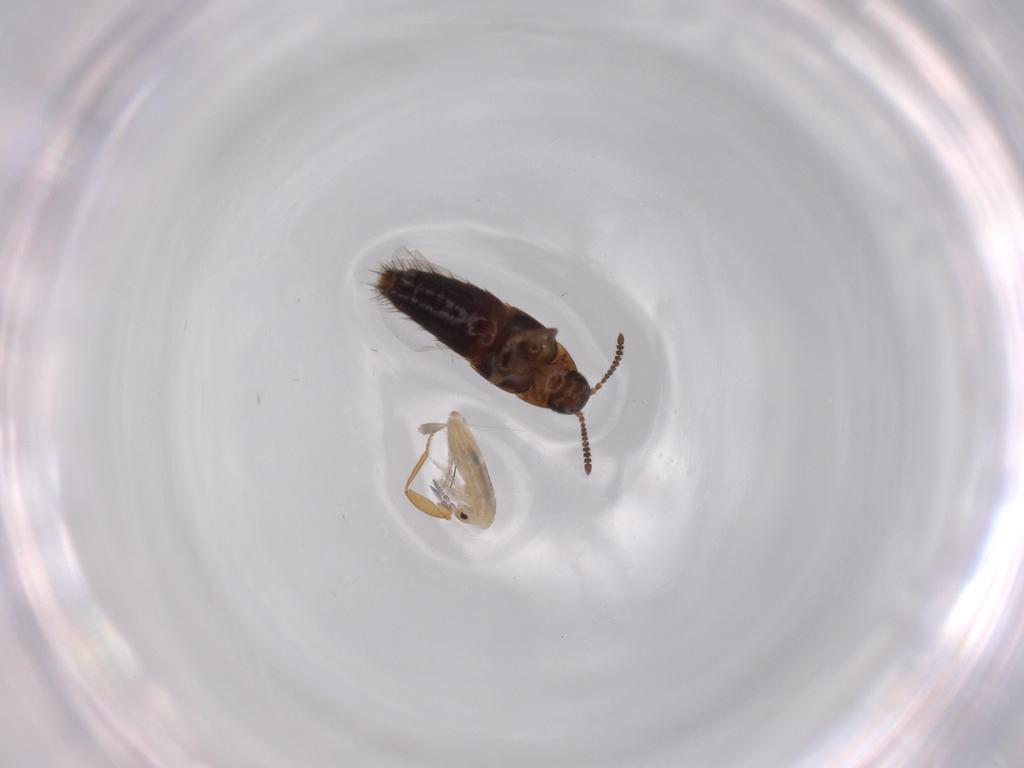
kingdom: Animalia
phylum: Arthropoda
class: Insecta
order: Coleoptera
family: Staphylinidae
